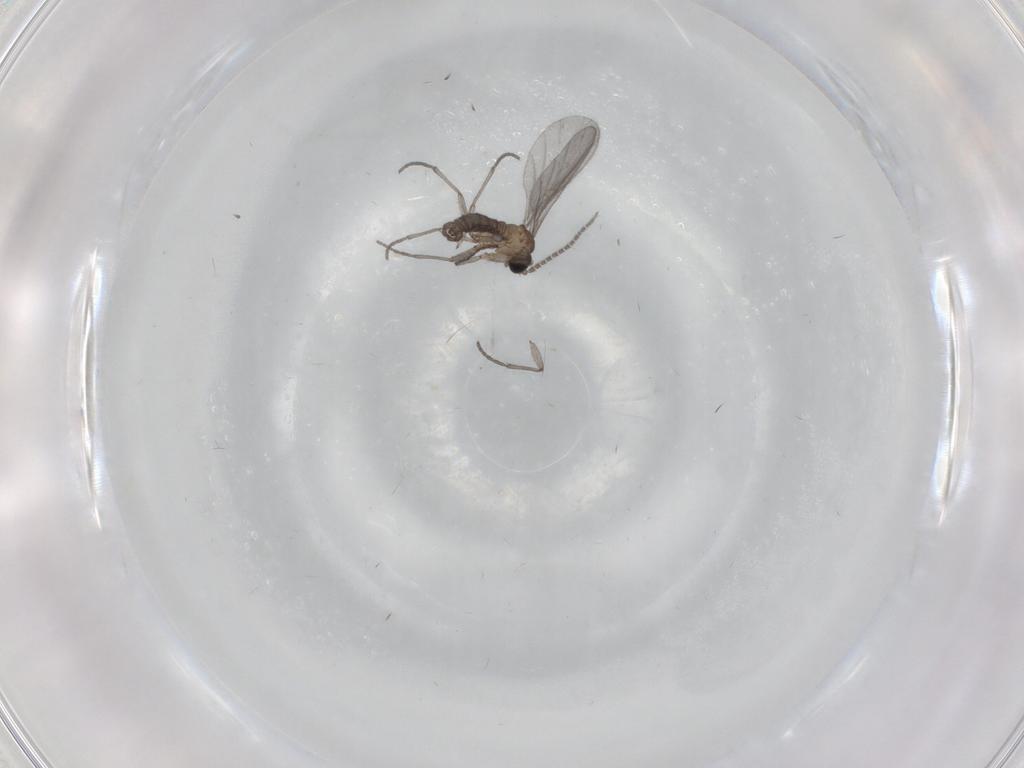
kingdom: Animalia
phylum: Arthropoda
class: Insecta
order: Diptera
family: Sciaridae
